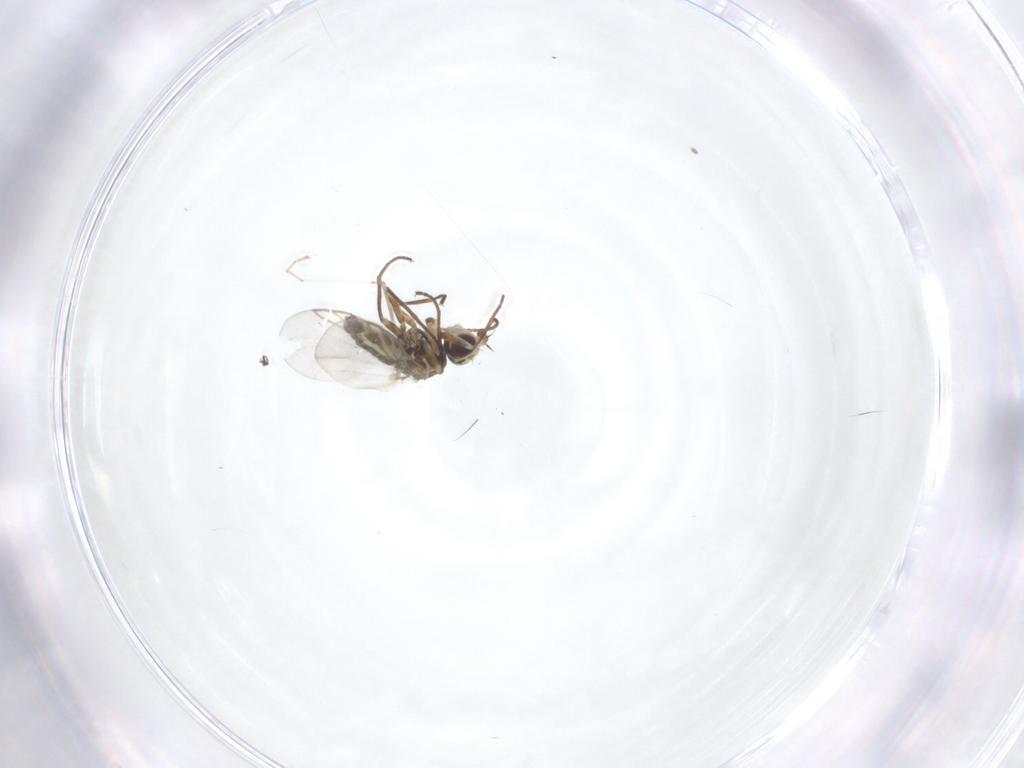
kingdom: Animalia
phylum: Arthropoda
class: Insecta
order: Diptera
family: Agromyzidae
